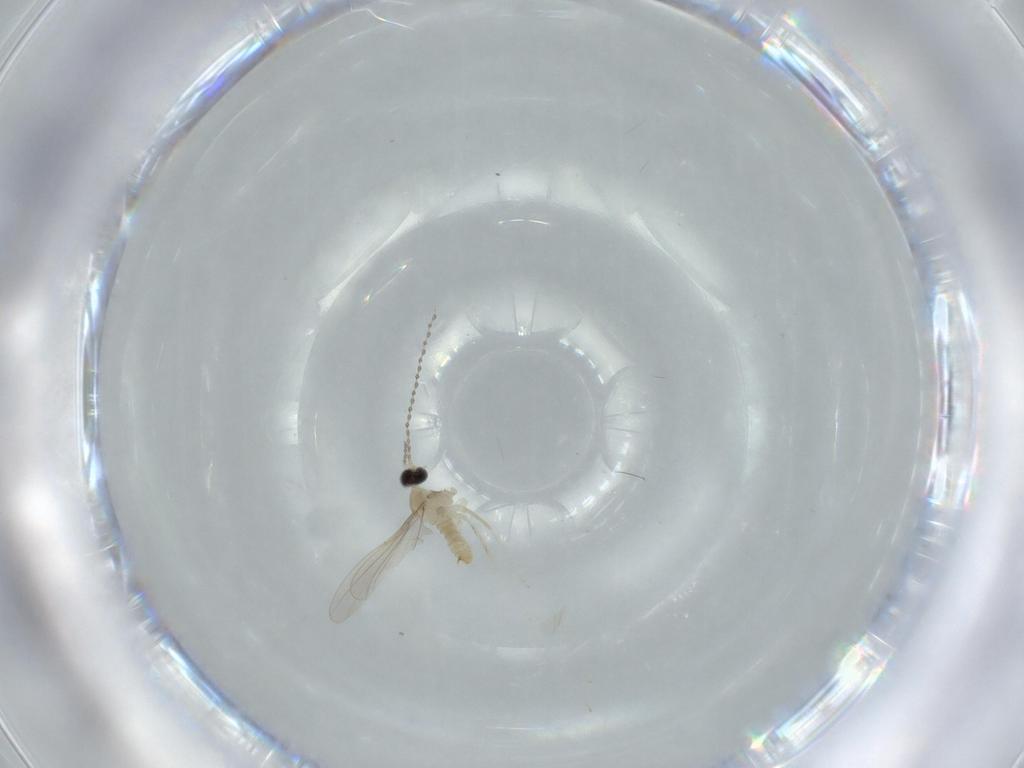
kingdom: Animalia
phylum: Arthropoda
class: Insecta
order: Diptera
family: Cecidomyiidae
